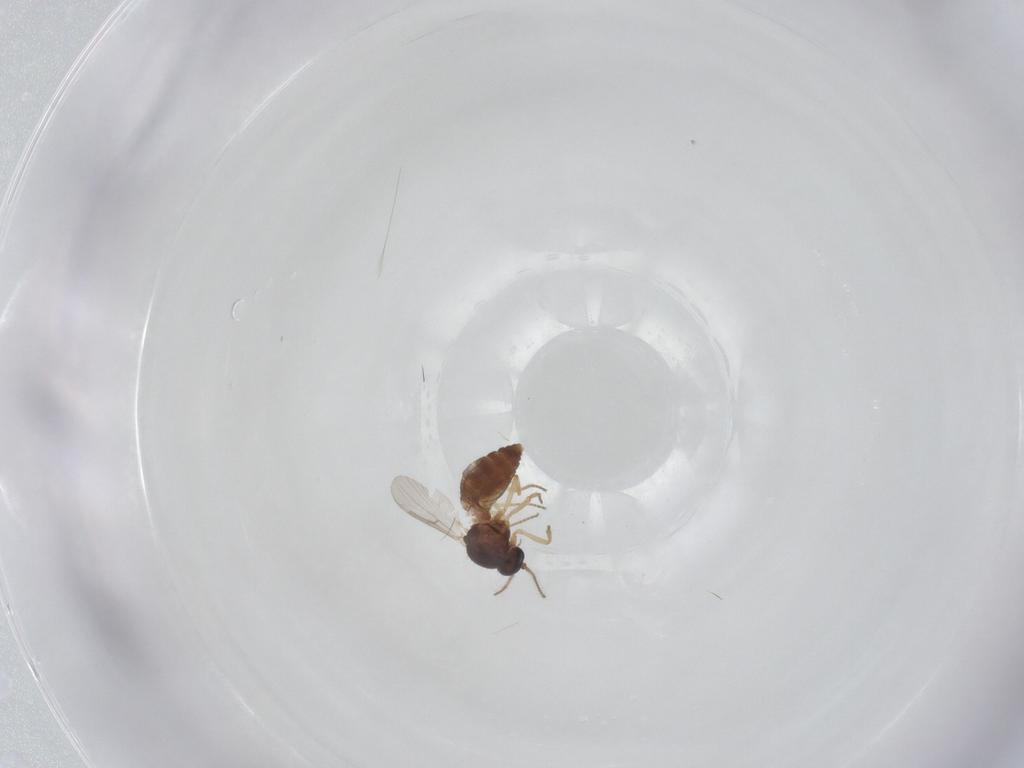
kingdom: Animalia
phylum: Arthropoda
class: Insecta
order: Diptera
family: Ceratopogonidae
